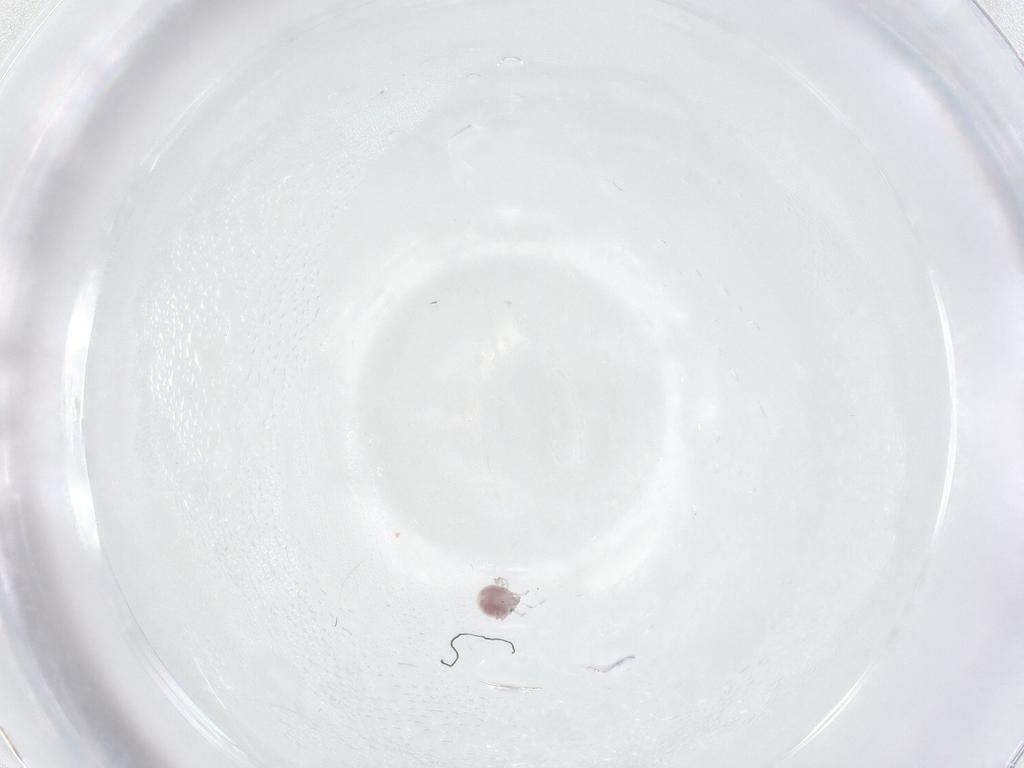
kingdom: Animalia
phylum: Arthropoda
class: Arachnida
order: Trombidiformes
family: Pionidae
